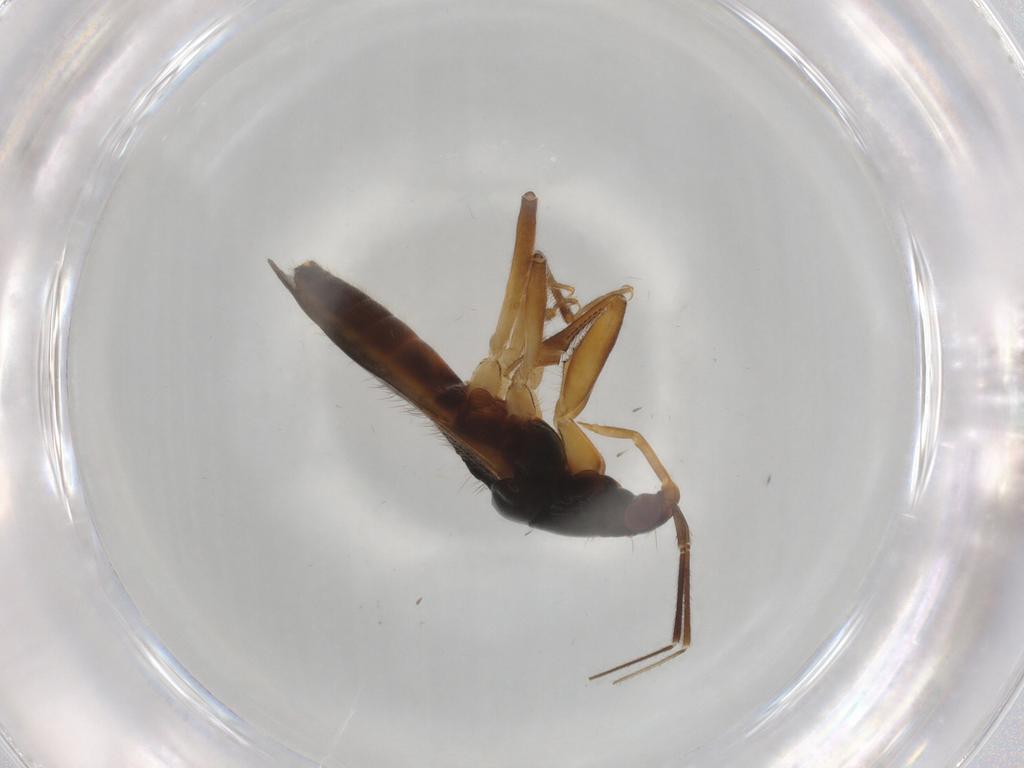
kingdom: Animalia
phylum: Arthropoda
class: Insecta
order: Hemiptera
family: Nabidae
